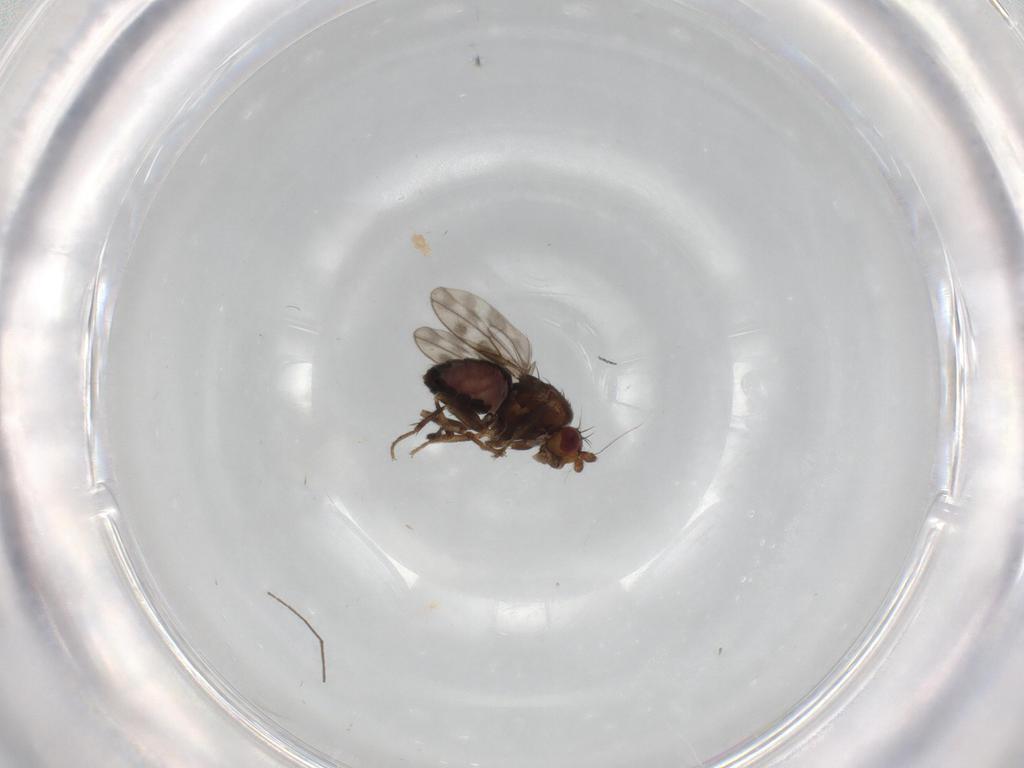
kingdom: Animalia
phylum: Arthropoda
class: Insecta
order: Diptera
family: Sphaeroceridae
